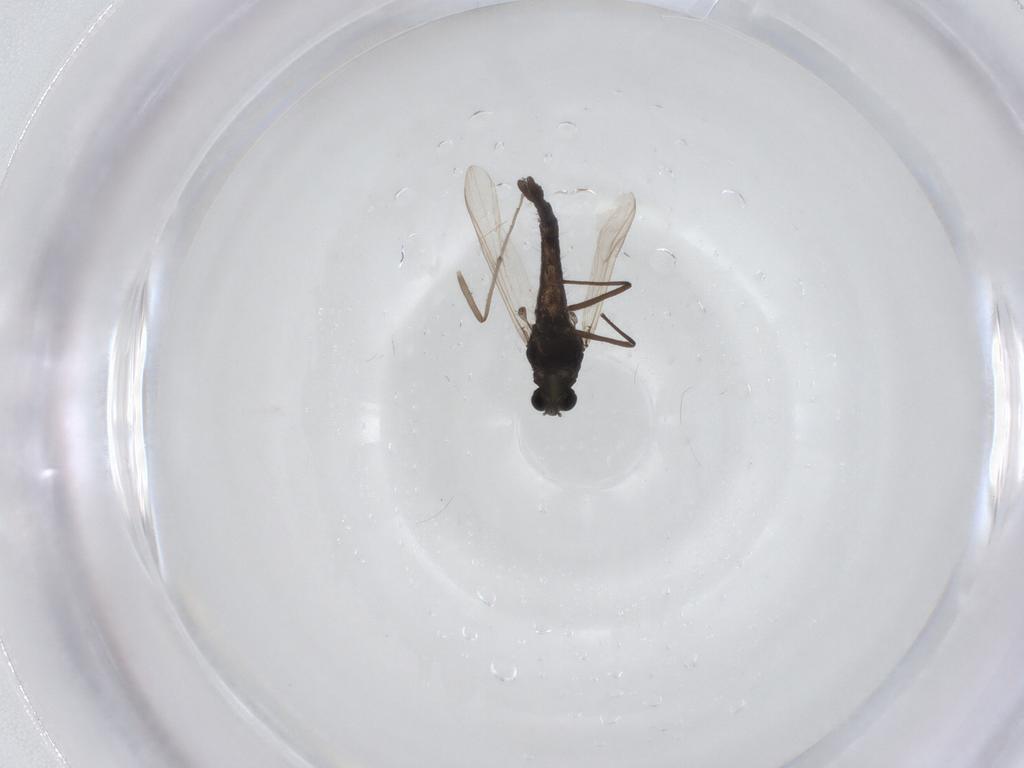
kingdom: Animalia
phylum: Arthropoda
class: Insecta
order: Diptera
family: Chironomidae
